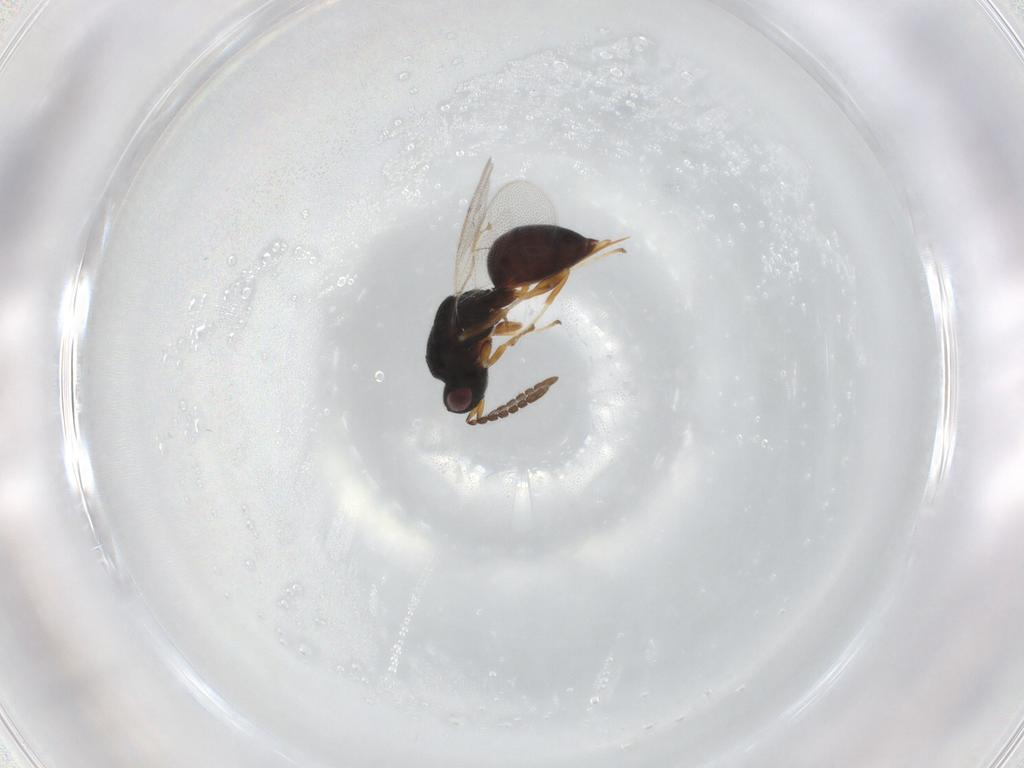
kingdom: Animalia
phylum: Arthropoda
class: Insecta
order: Hymenoptera
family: Eurytomidae
